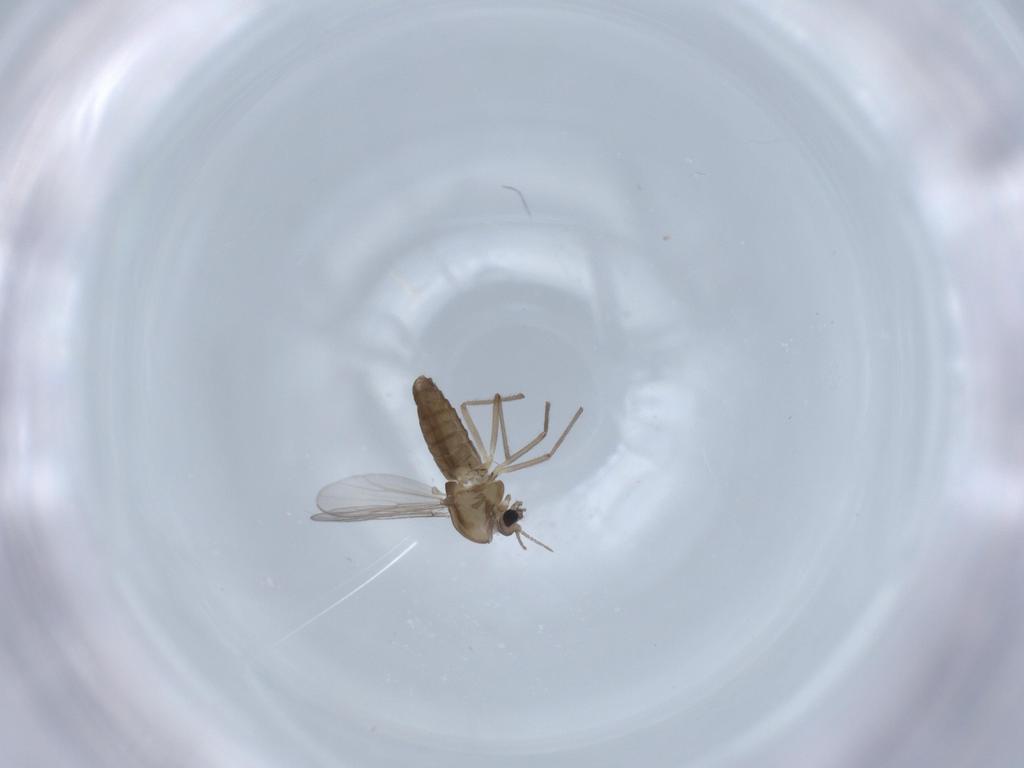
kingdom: Animalia
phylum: Arthropoda
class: Insecta
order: Diptera
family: Chironomidae
